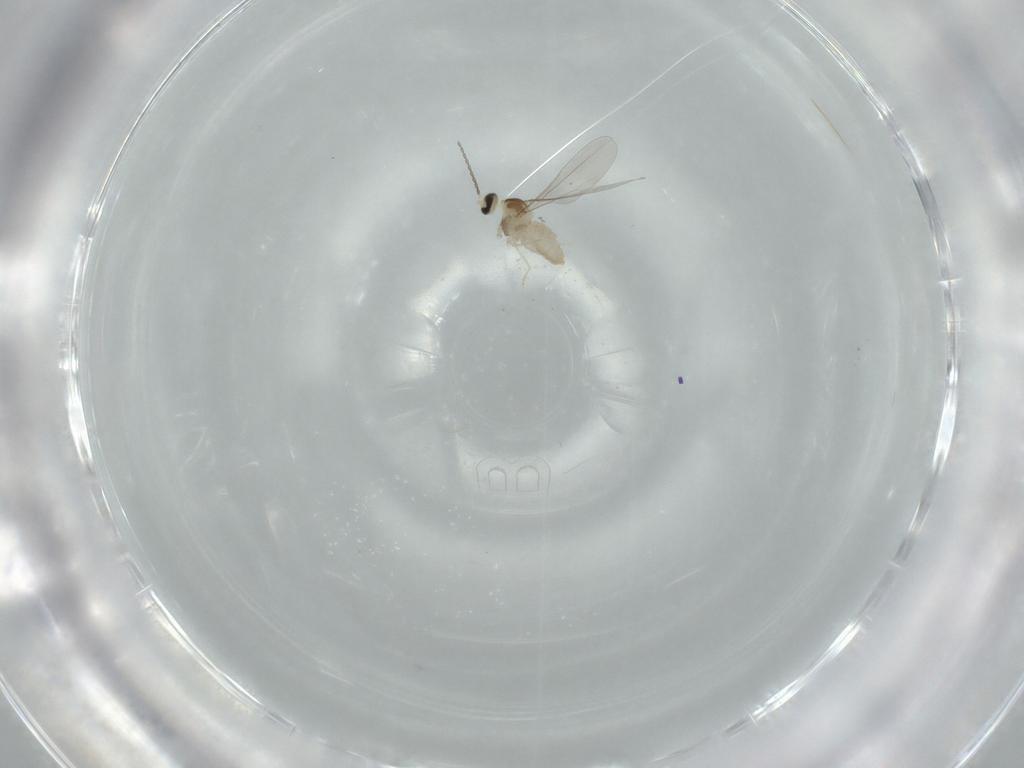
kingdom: Animalia
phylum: Arthropoda
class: Insecta
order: Diptera
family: Cecidomyiidae
